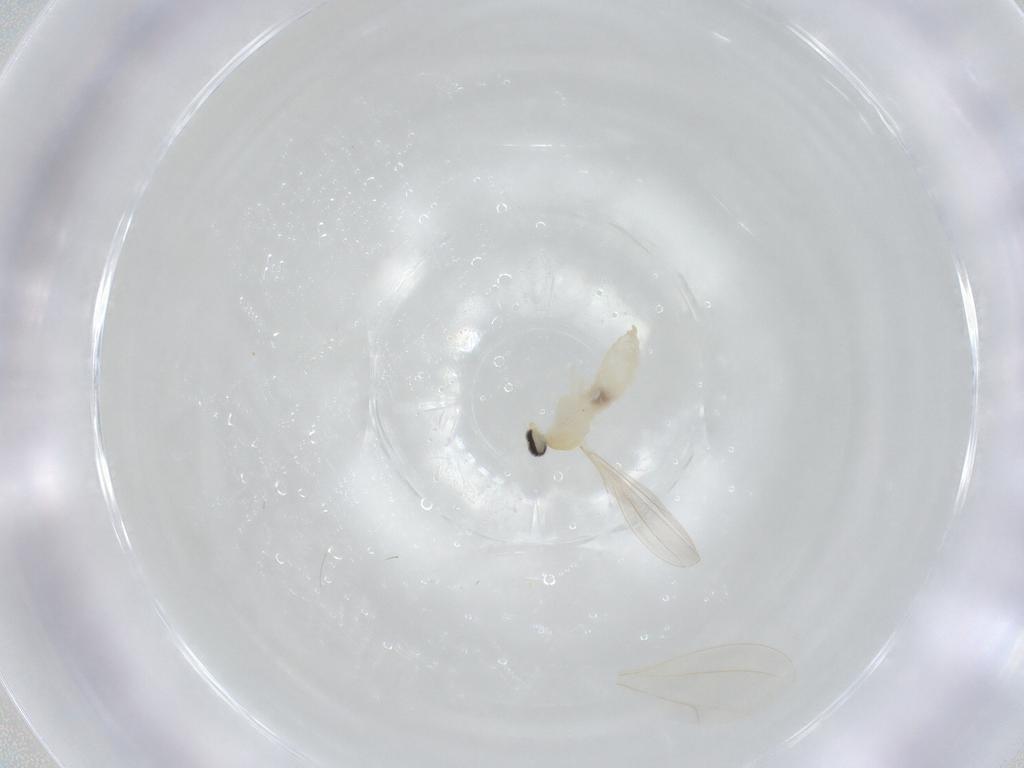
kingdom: Animalia
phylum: Arthropoda
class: Insecta
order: Diptera
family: Cecidomyiidae
